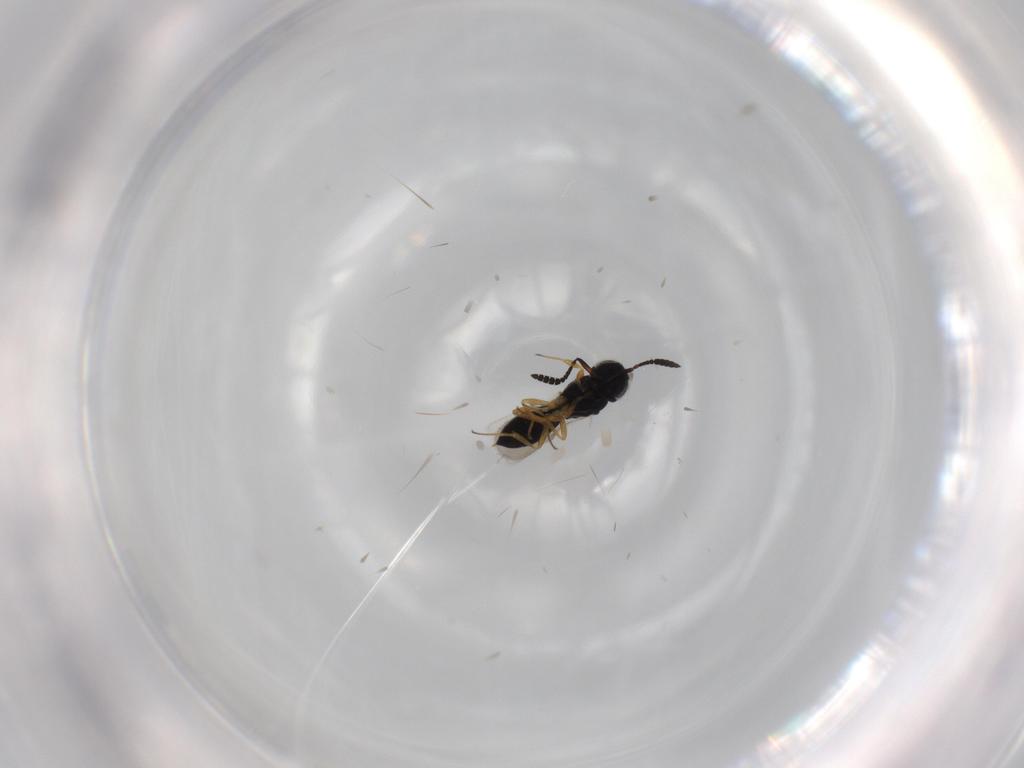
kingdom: Animalia
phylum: Arthropoda
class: Insecta
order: Hymenoptera
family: Scelionidae
